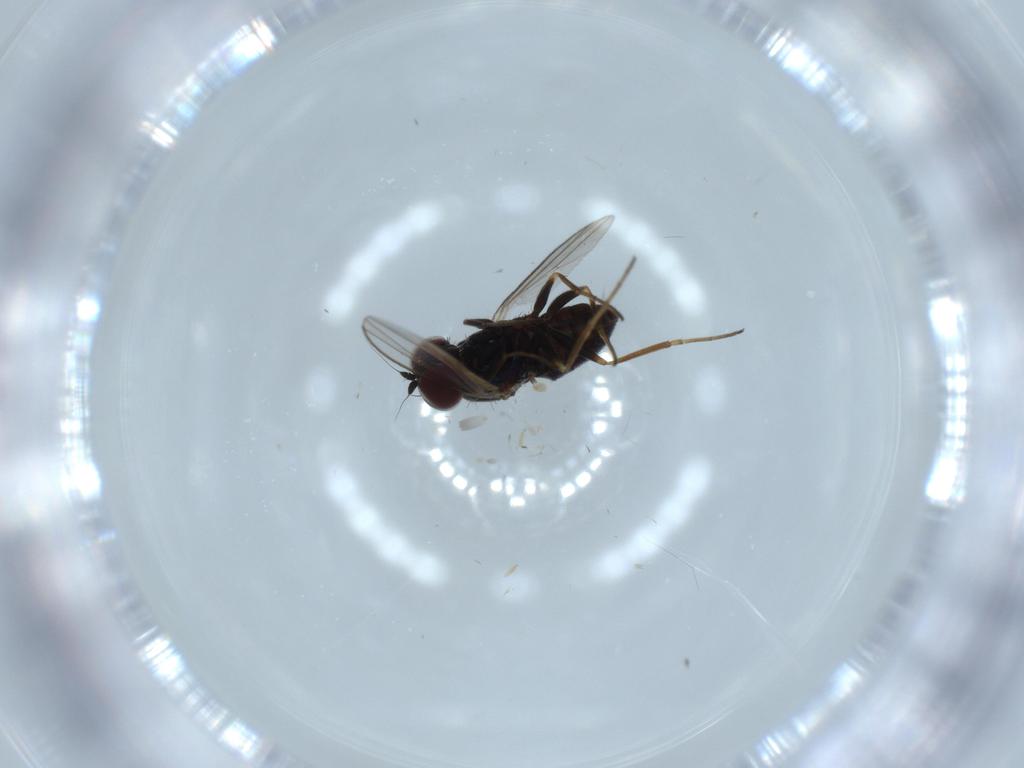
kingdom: Animalia
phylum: Arthropoda
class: Insecta
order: Diptera
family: Dolichopodidae
